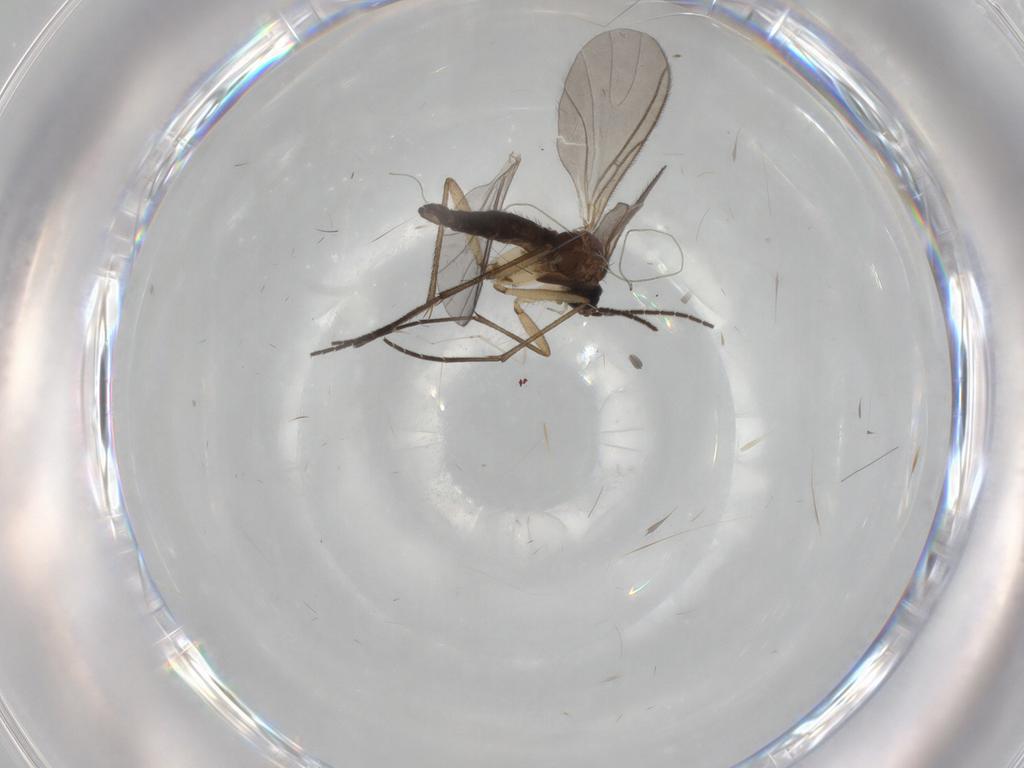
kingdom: Animalia
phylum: Arthropoda
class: Insecta
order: Diptera
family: Sciaridae
